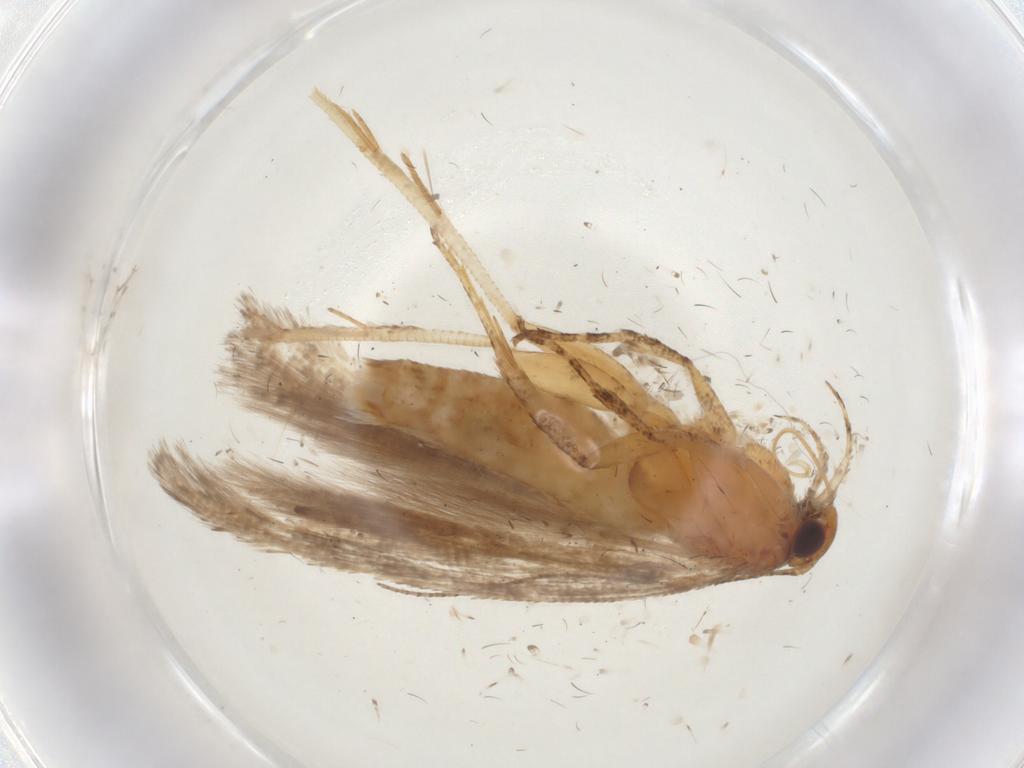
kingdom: Animalia
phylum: Arthropoda
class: Insecta
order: Lepidoptera
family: Gelechiidae
